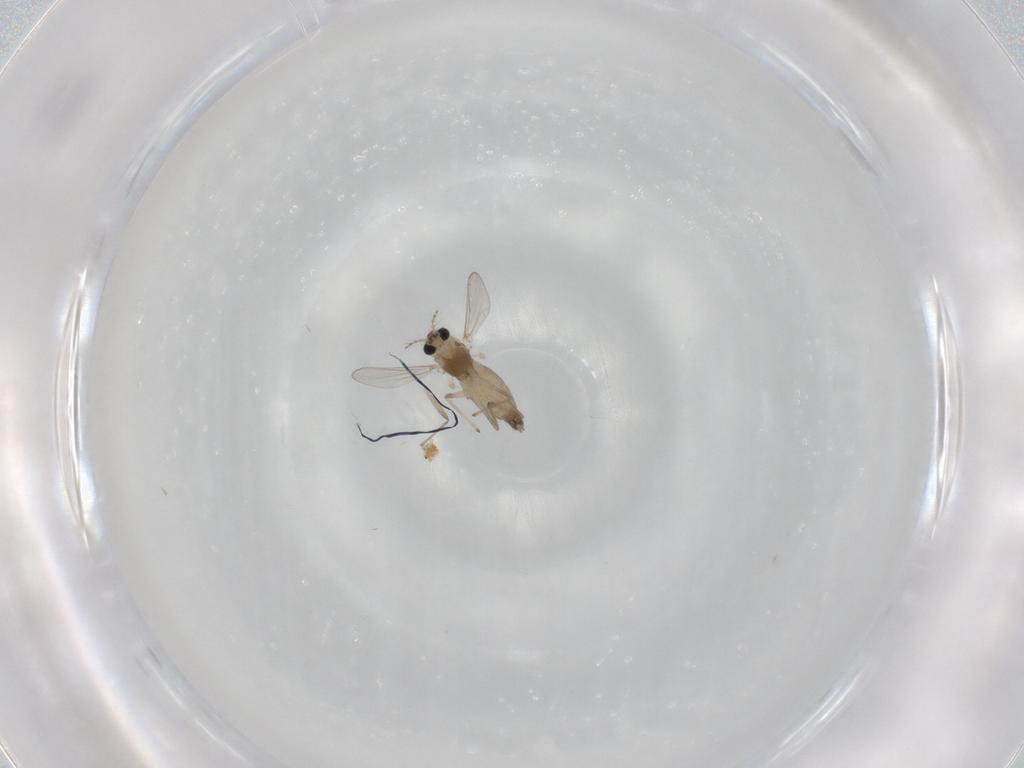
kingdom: Animalia
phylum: Arthropoda
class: Insecta
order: Diptera
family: Chironomidae
